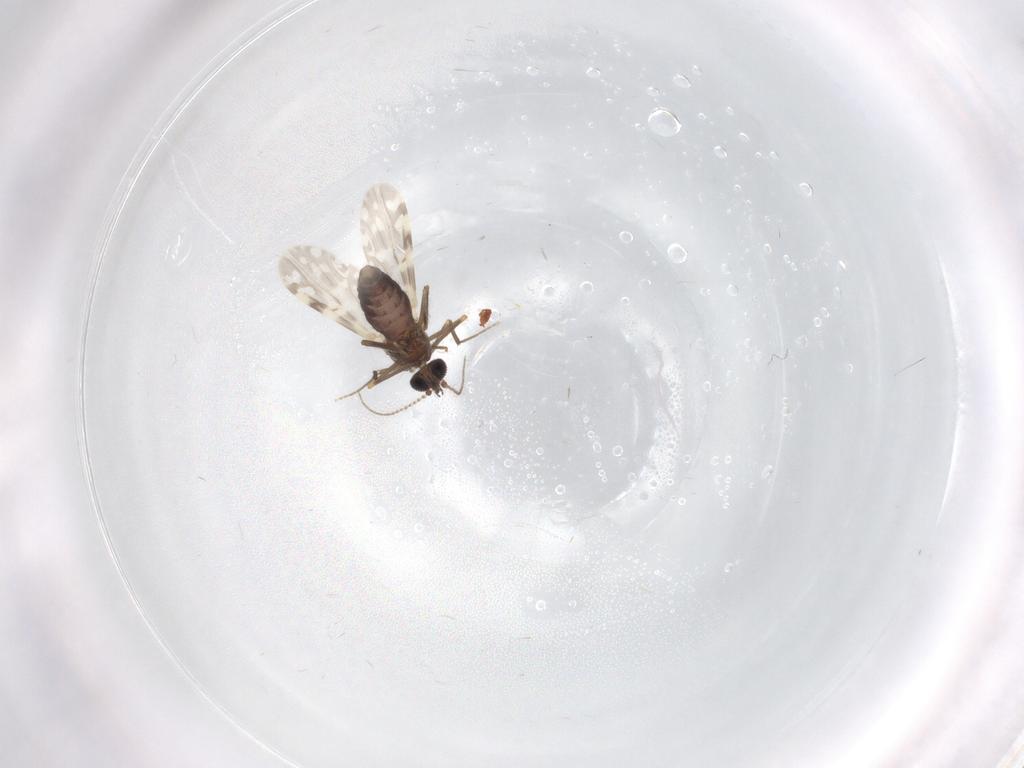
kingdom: Animalia
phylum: Arthropoda
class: Insecta
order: Diptera
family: Ceratopogonidae
